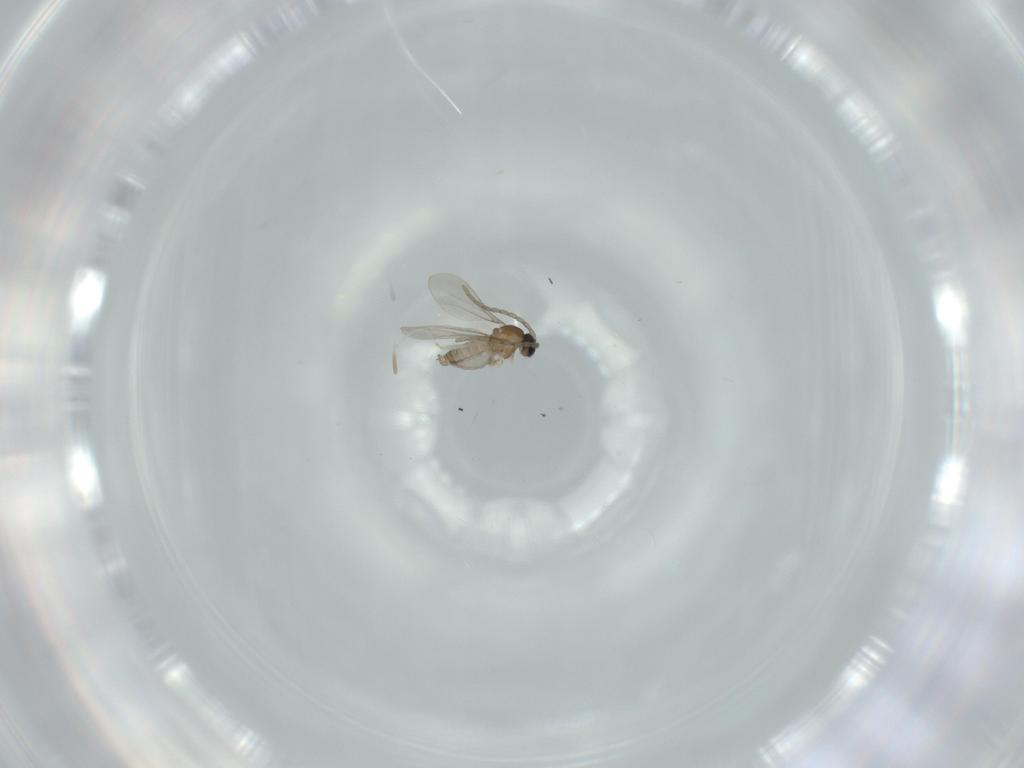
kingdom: Animalia
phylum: Arthropoda
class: Insecta
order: Diptera
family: Cecidomyiidae
